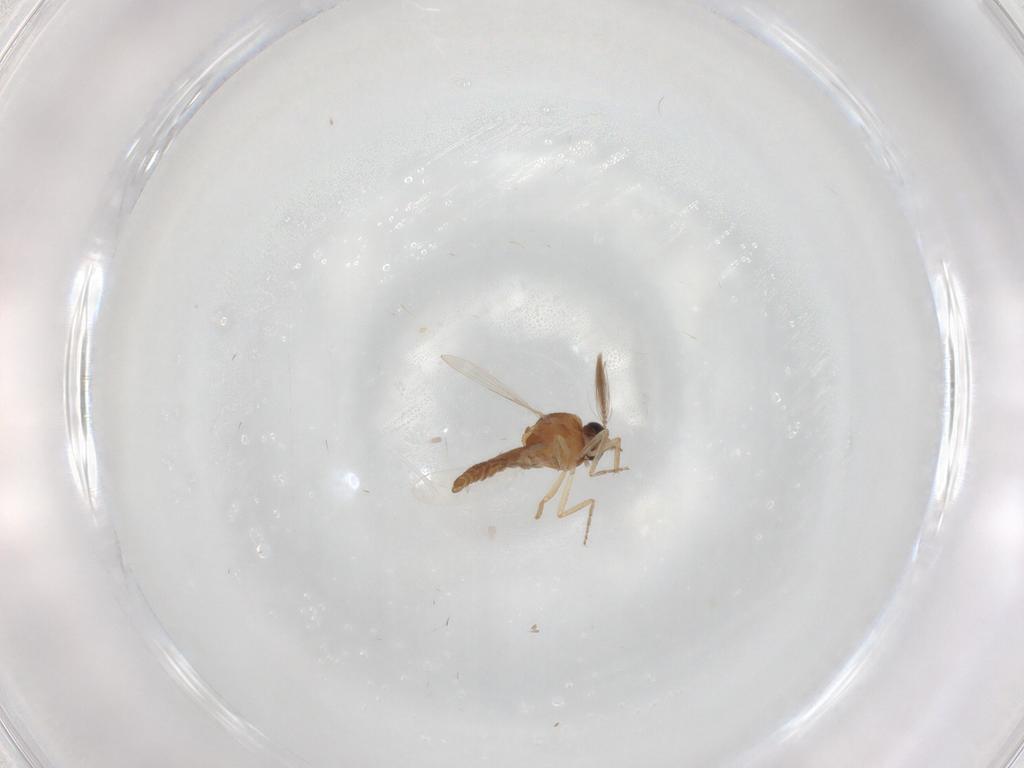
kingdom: Animalia
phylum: Arthropoda
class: Insecta
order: Diptera
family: Ceratopogonidae
